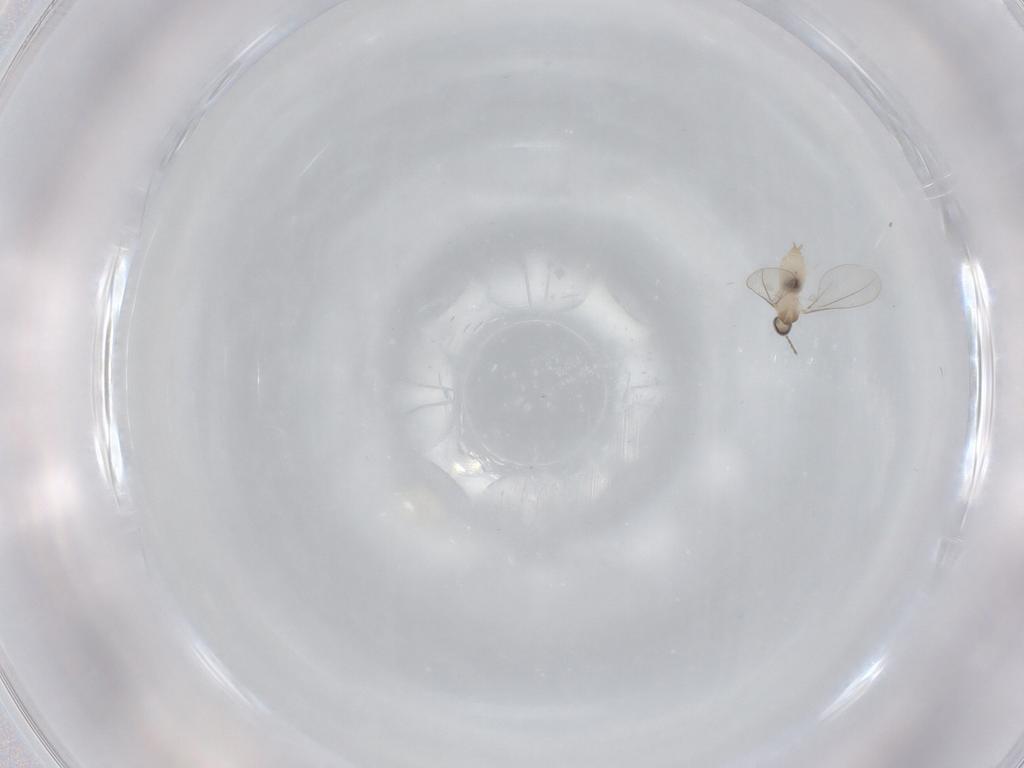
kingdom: Animalia
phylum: Arthropoda
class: Insecta
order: Diptera
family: Cecidomyiidae
